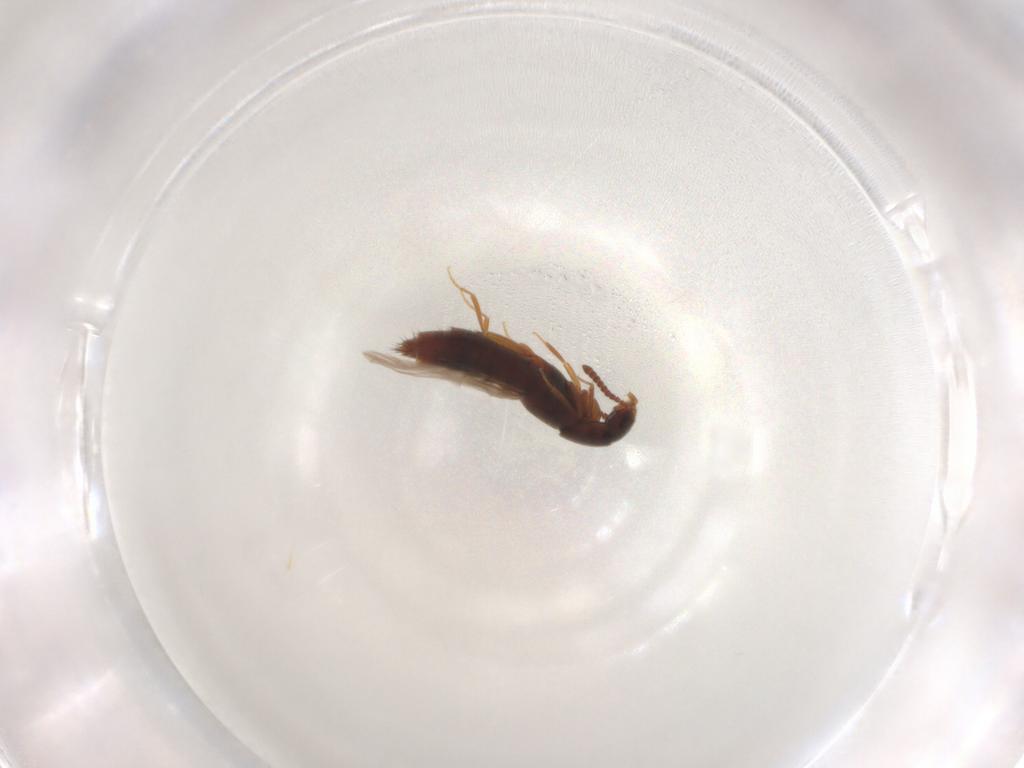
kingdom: Animalia
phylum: Arthropoda
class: Insecta
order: Coleoptera
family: Staphylinidae
